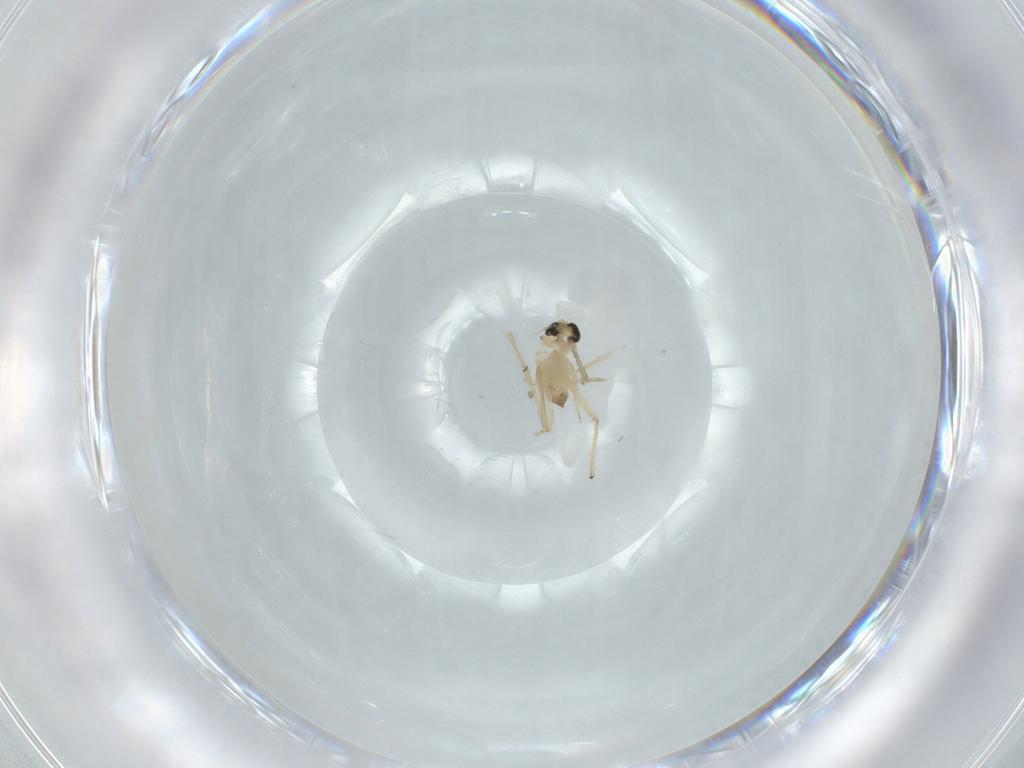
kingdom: Animalia
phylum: Arthropoda
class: Insecta
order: Diptera
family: Chironomidae
